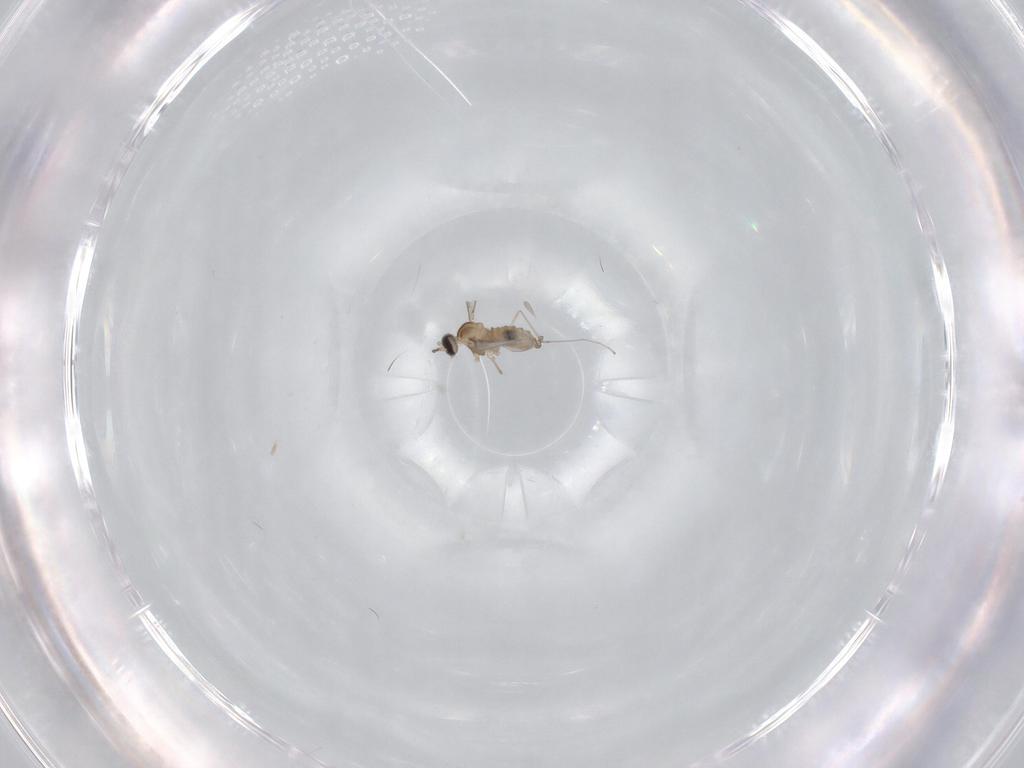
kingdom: Animalia
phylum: Arthropoda
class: Insecta
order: Diptera
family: Cecidomyiidae
